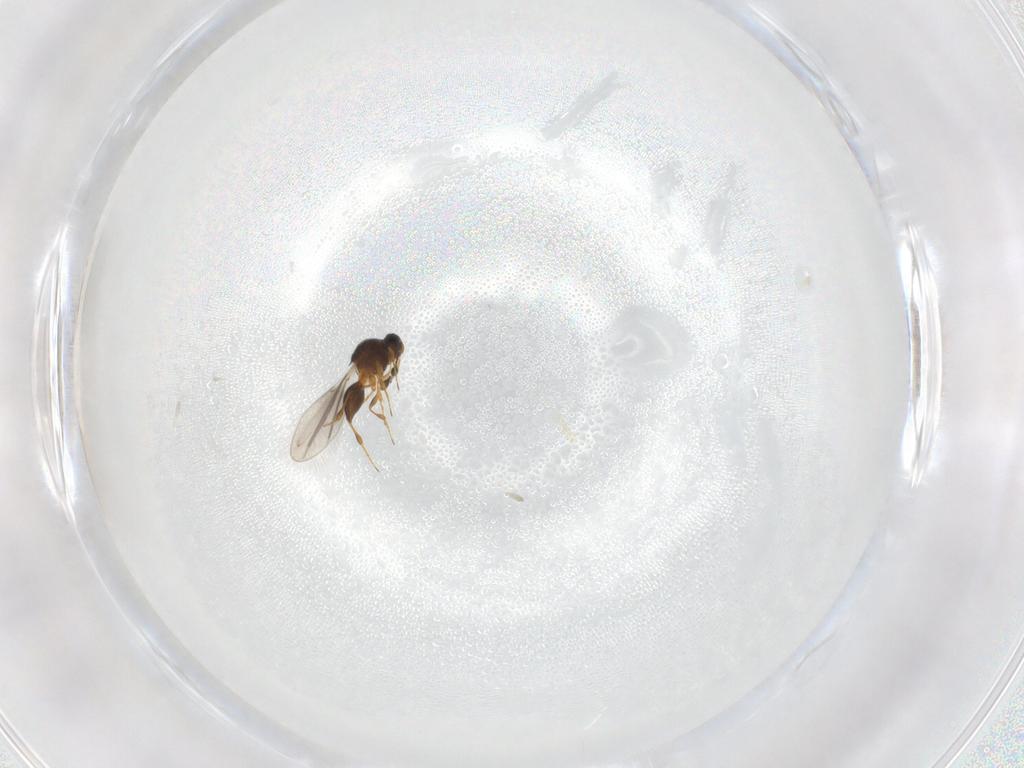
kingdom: Animalia
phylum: Arthropoda
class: Insecta
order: Hymenoptera
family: Platygastridae
